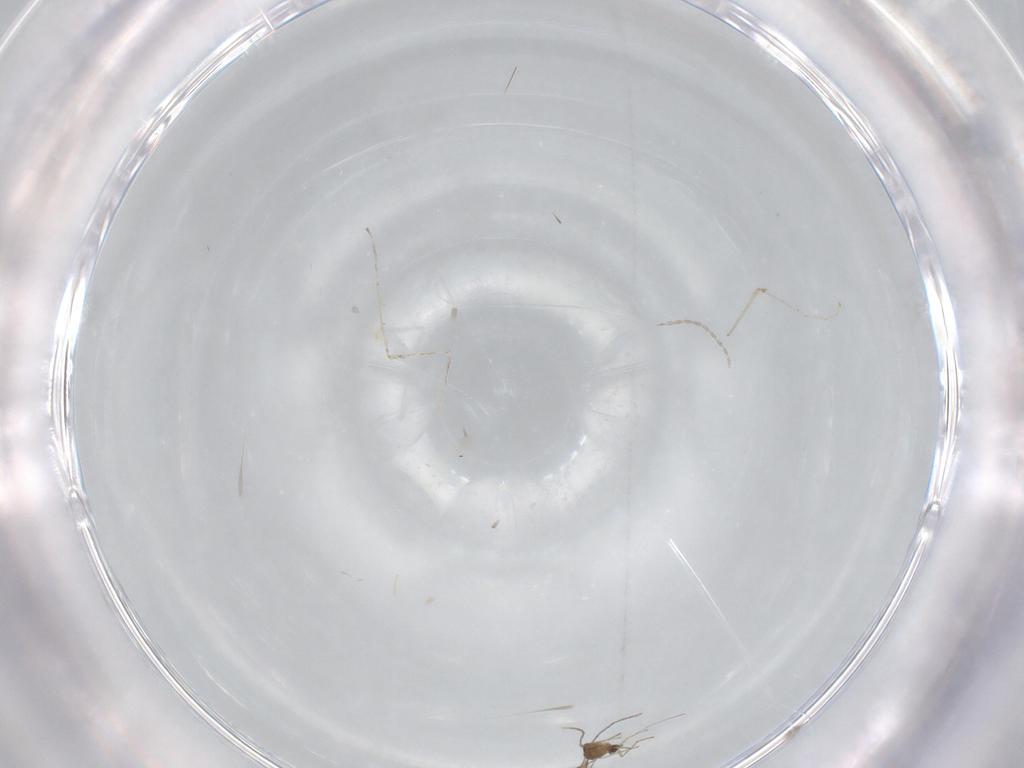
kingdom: Animalia
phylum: Arthropoda
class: Insecta
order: Diptera
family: Cecidomyiidae
